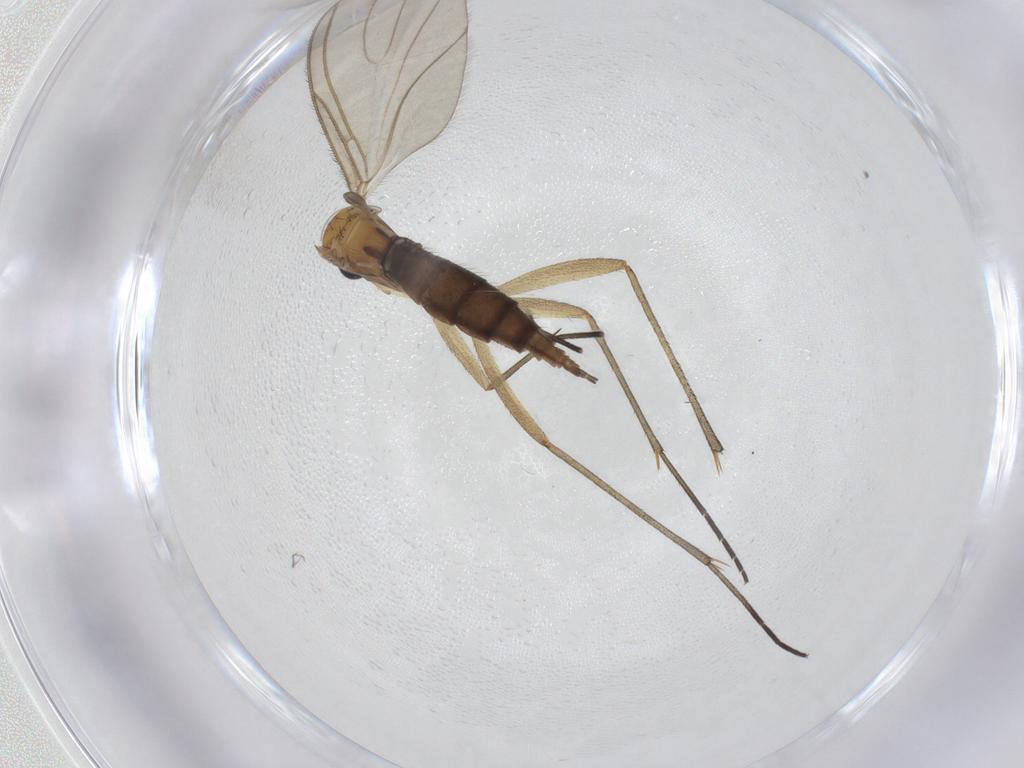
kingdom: Animalia
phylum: Arthropoda
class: Insecta
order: Diptera
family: Sciaridae
